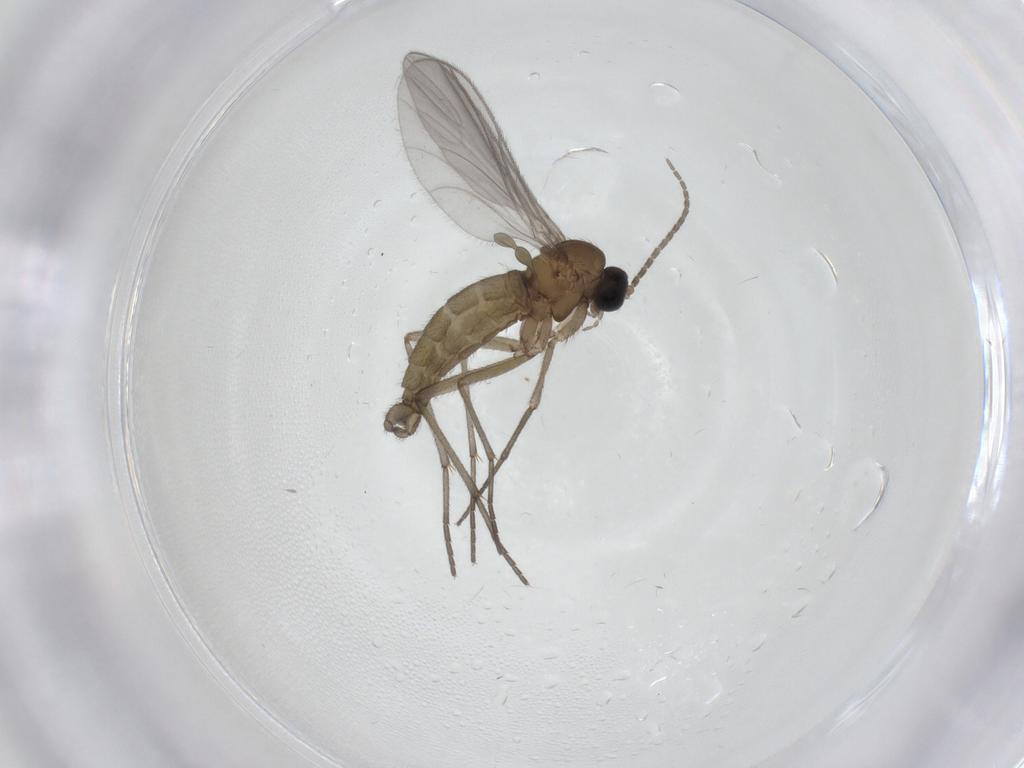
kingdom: Animalia
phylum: Arthropoda
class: Insecta
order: Diptera
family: Sciaridae
